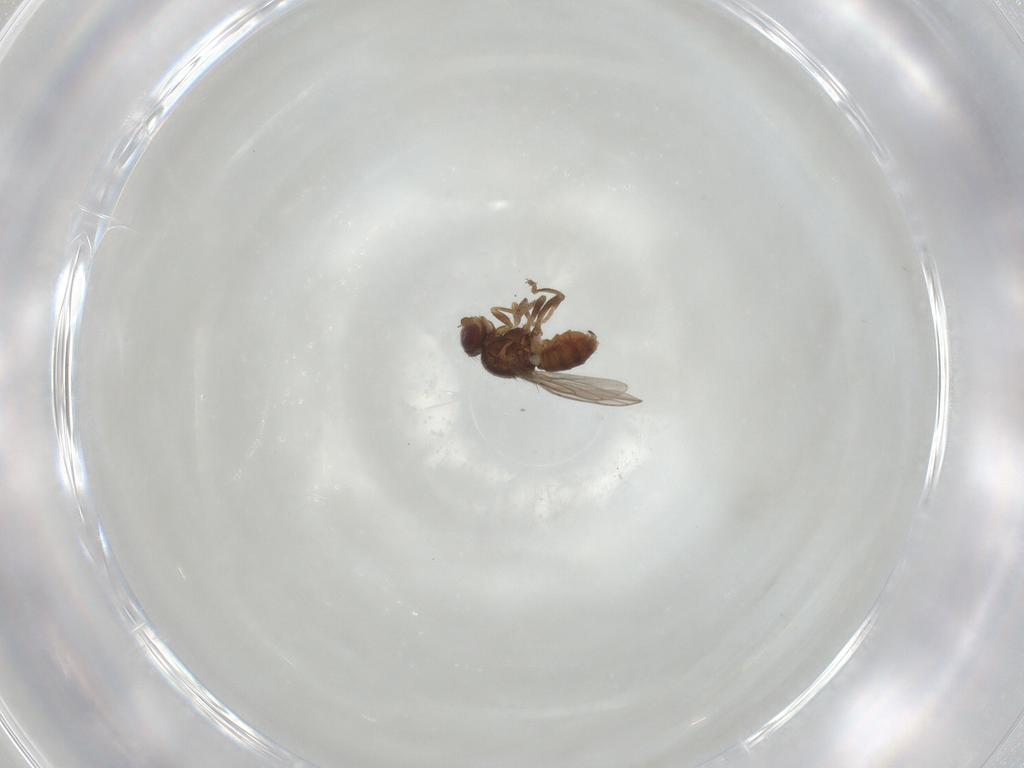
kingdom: Animalia
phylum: Arthropoda
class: Insecta
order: Diptera
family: Chloropidae
